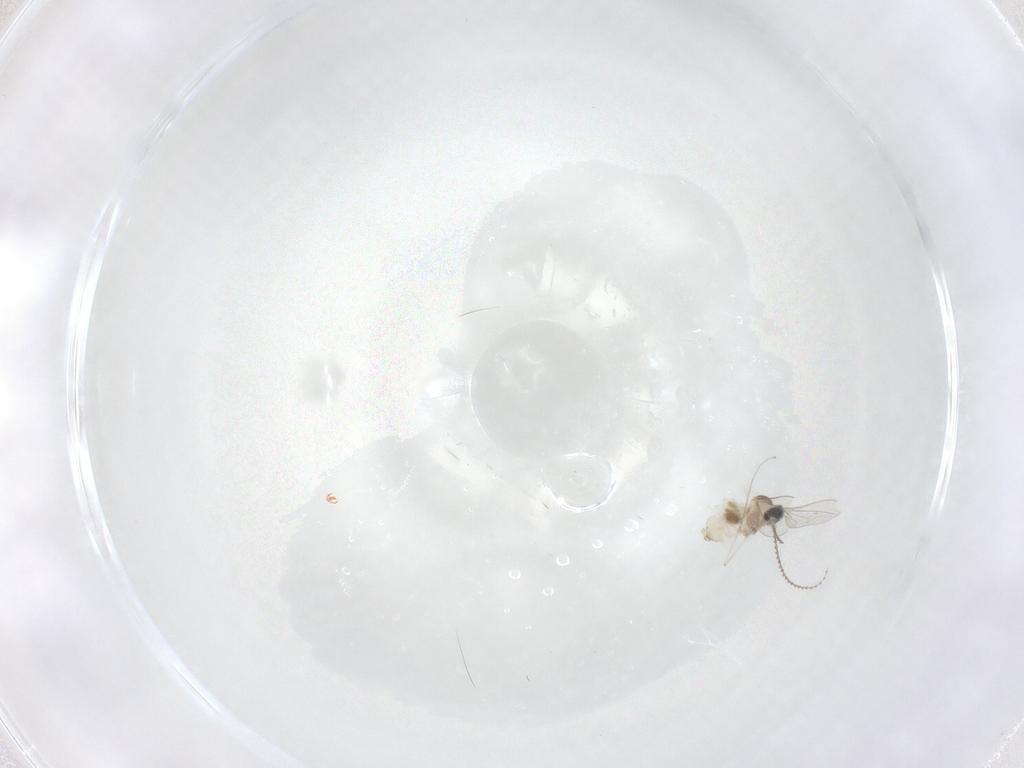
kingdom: Animalia
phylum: Arthropoda
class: Insecta
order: Diptera
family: Cecidomyiidae
